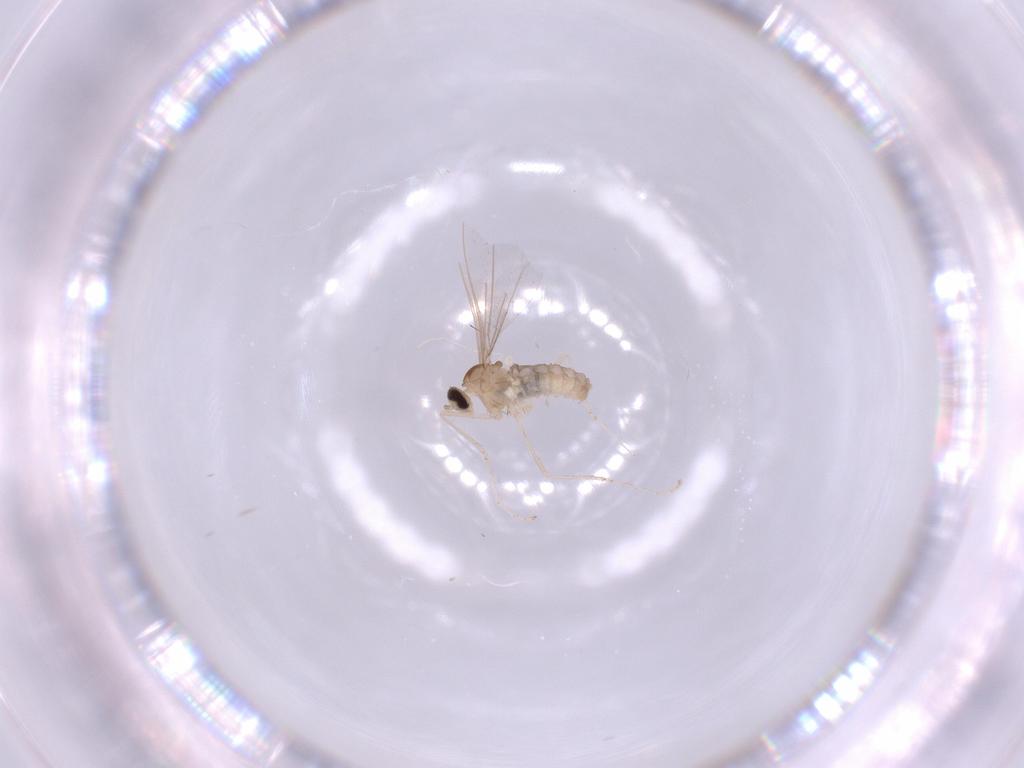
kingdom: Animalia
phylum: Arthropoda
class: Insecta
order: Diptera
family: Cecidomyiidae
